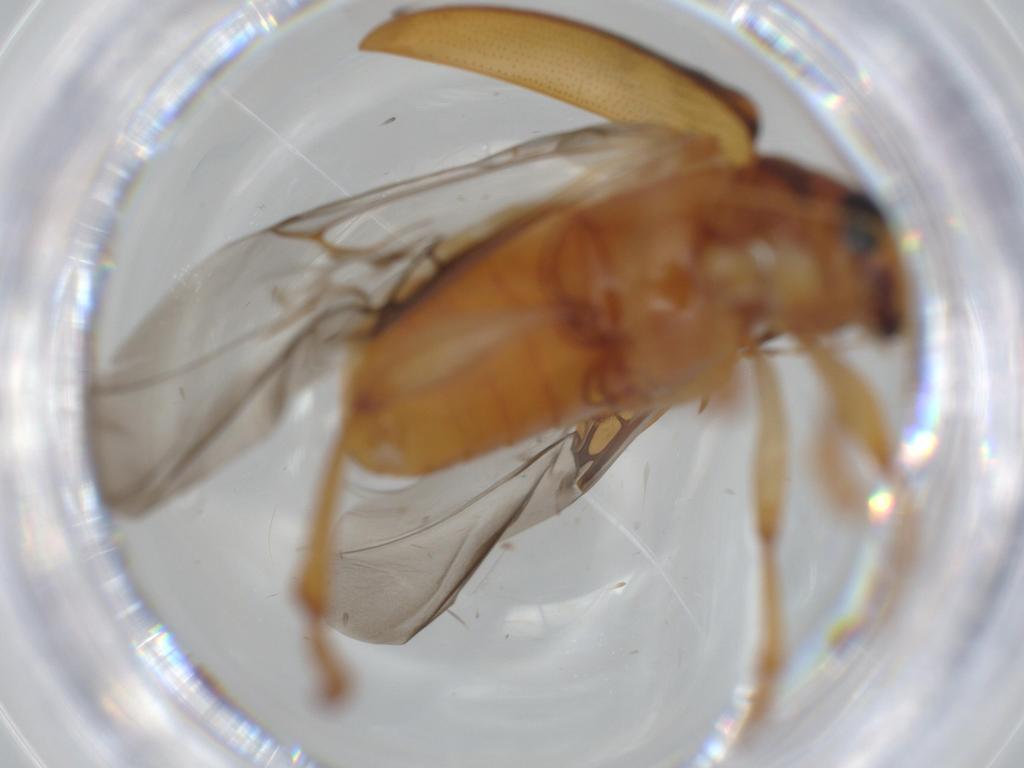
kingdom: Animalia
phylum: Arthropoda
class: Insecta
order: Coleoptera
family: Chrysomelidae
